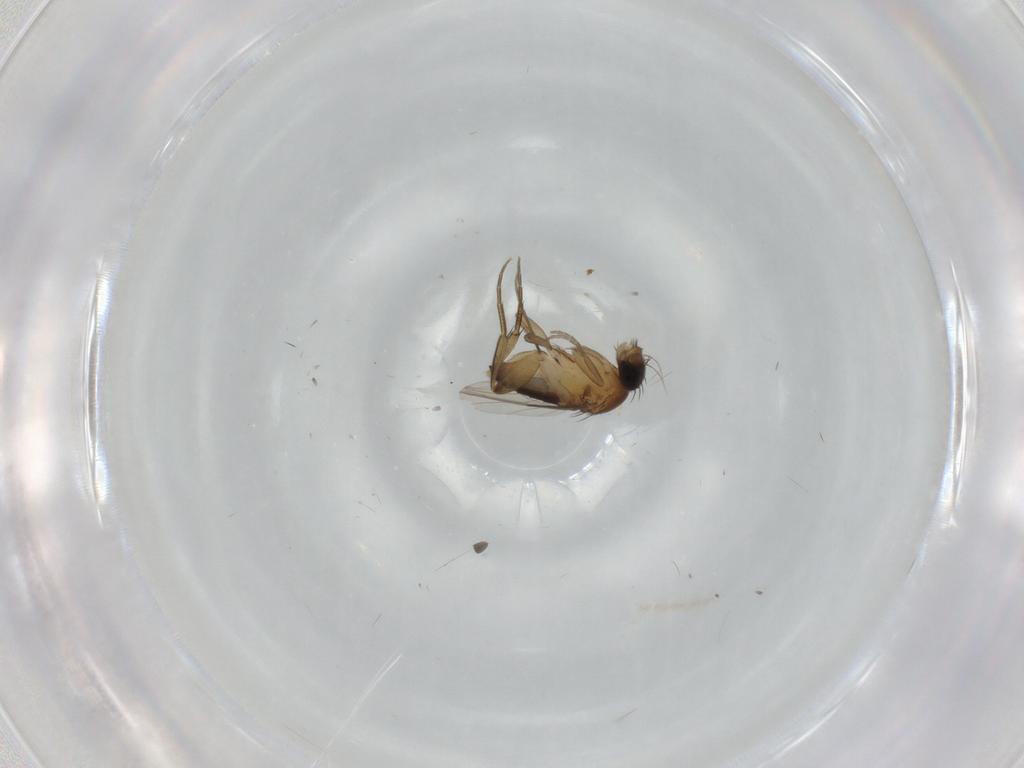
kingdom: Animalia
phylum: Arthropoda
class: Insecta
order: Diptera
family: Phoridae
